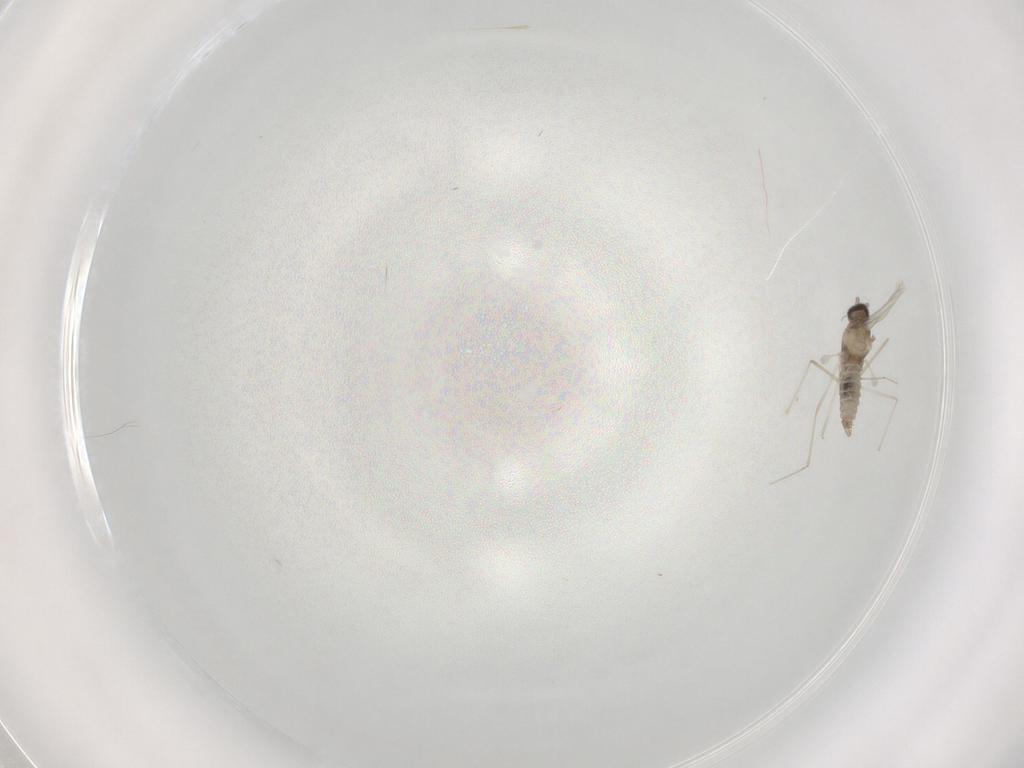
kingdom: Animalia
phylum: Arthropoda
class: Insecta
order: Diptera
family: Cecidomyiidae
